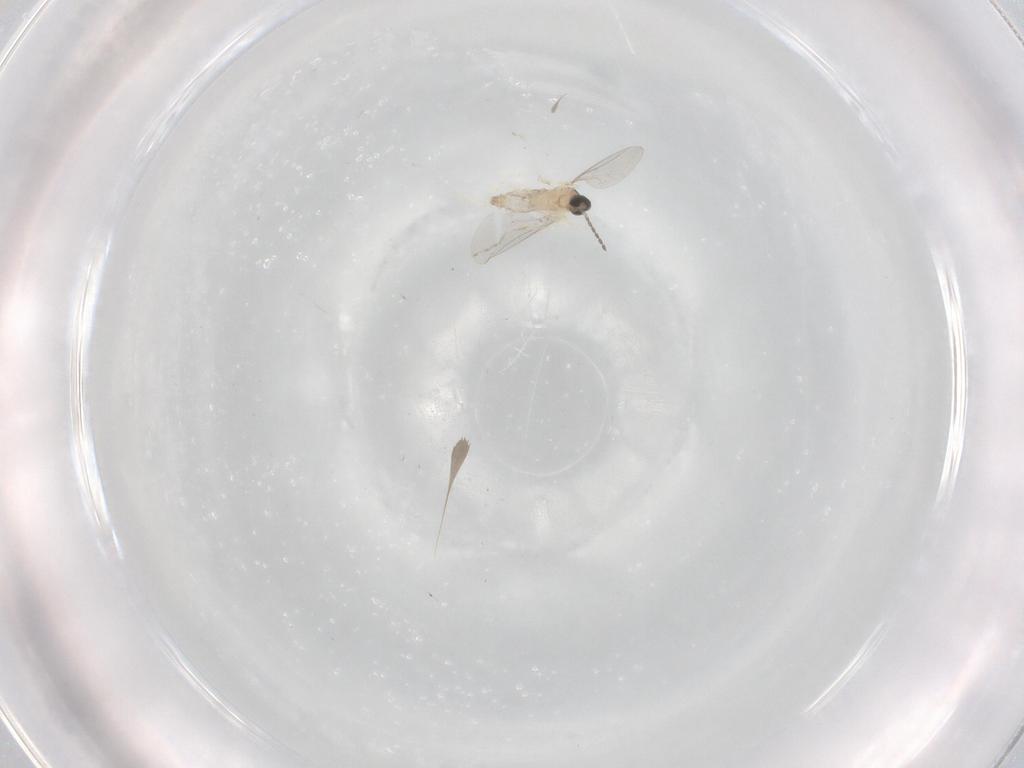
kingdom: Animalia
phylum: Arthropoda
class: Insecta
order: Diptera
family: Cecidomyiidae
